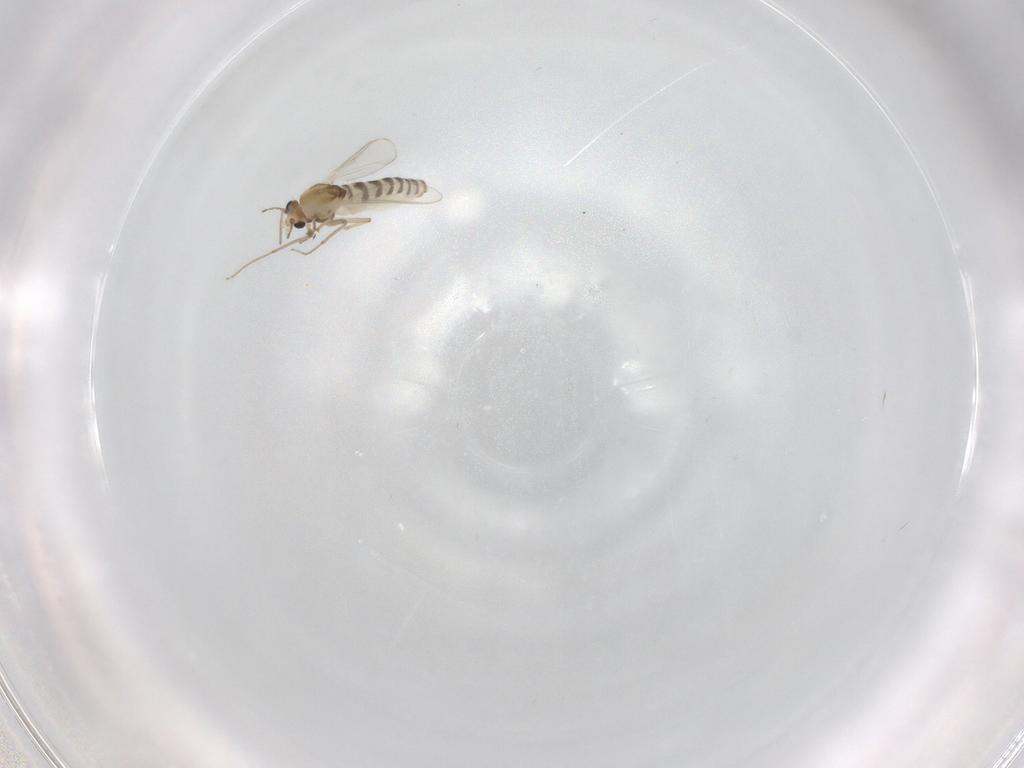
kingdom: Animalia
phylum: Arthropoda
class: Insecta
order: Diptera
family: Chironomidae
